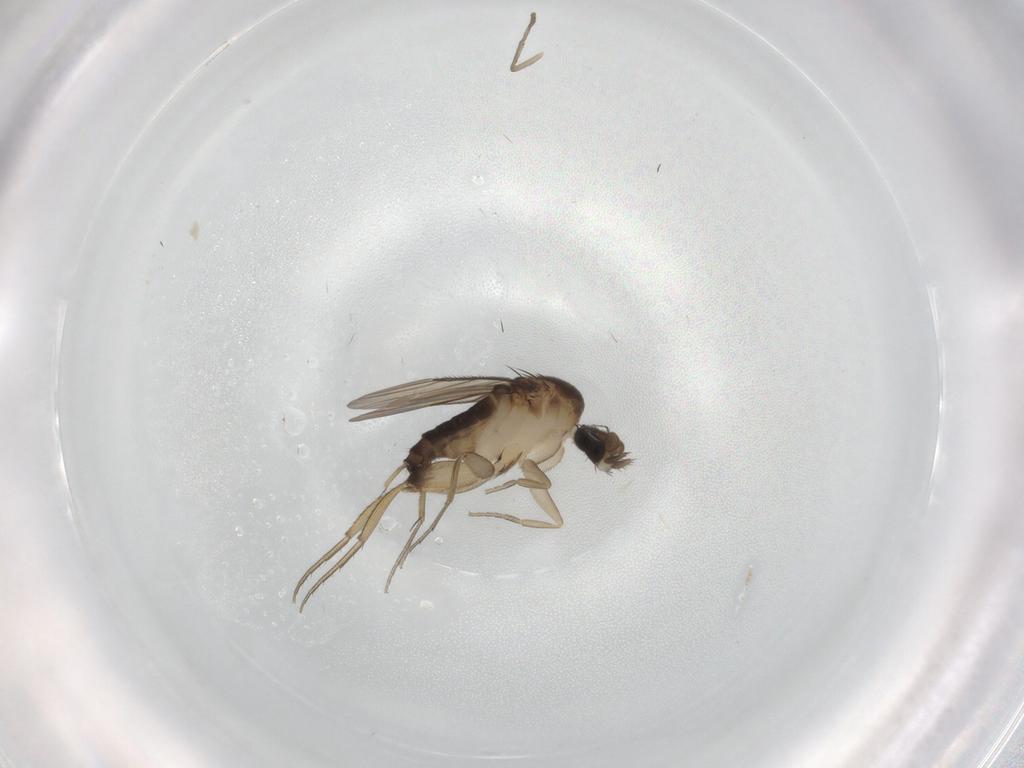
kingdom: Animalia
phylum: Arthropoda
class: Insecta
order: Diptera
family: Cecidomyiidae
